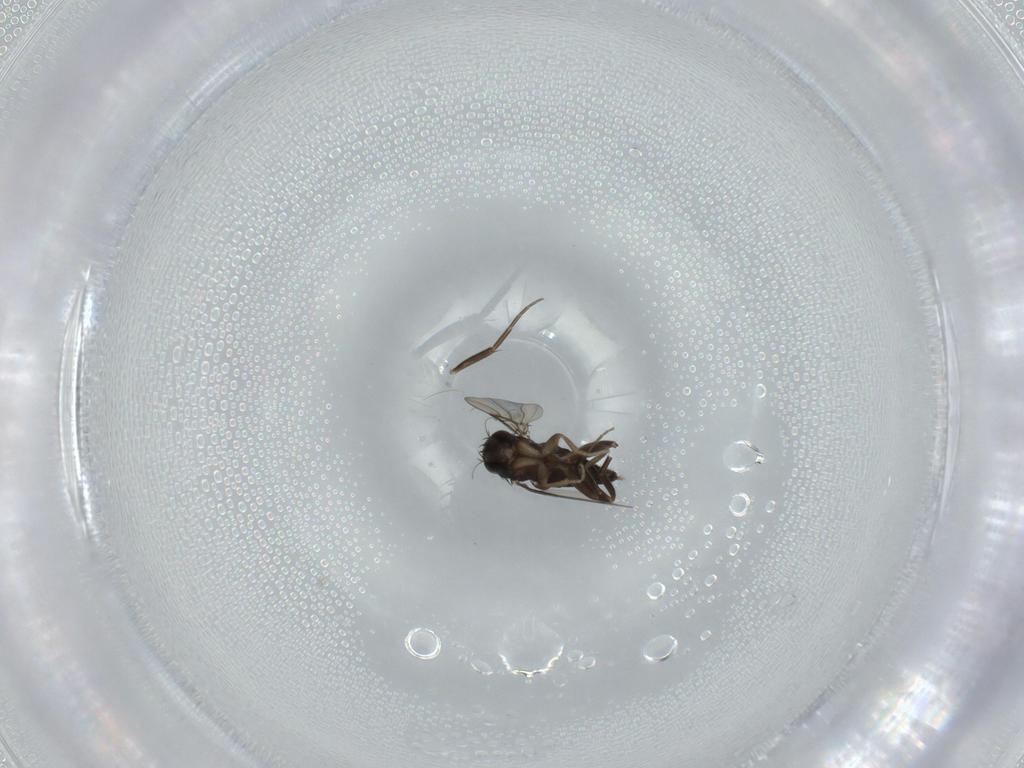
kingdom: Animalia
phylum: Arthropoda
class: Insecta
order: Diptera
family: Phoridae
